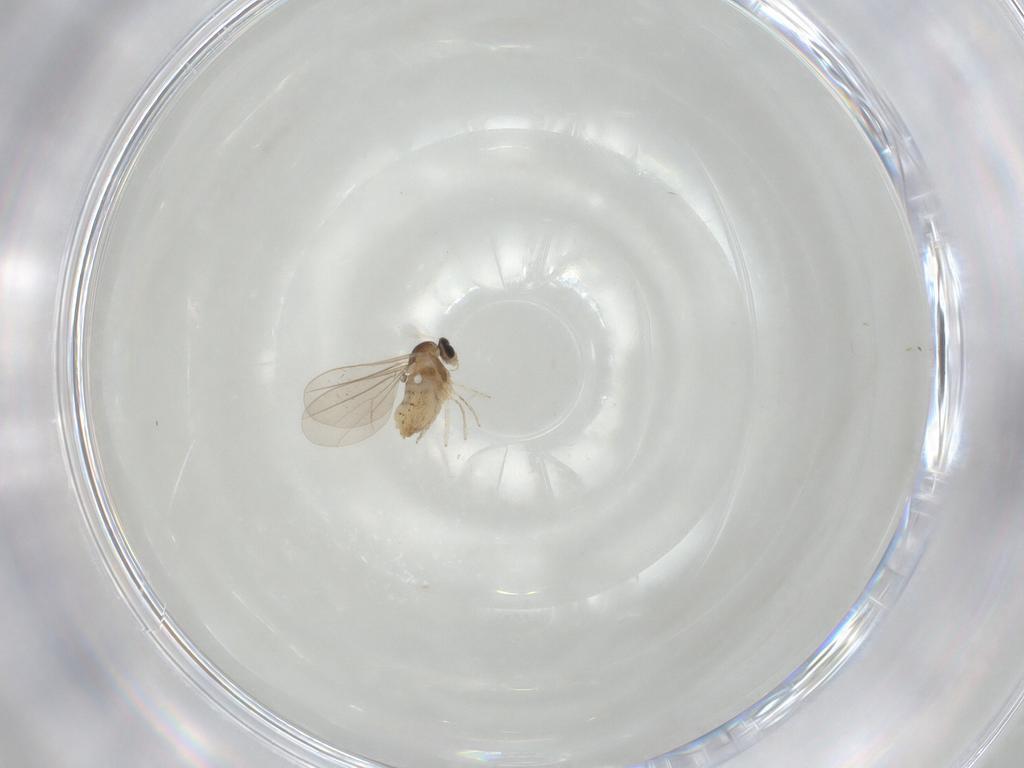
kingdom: Animalia
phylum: Arthropoda
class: Insecta
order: Diptera
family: Cecidomyiidae
